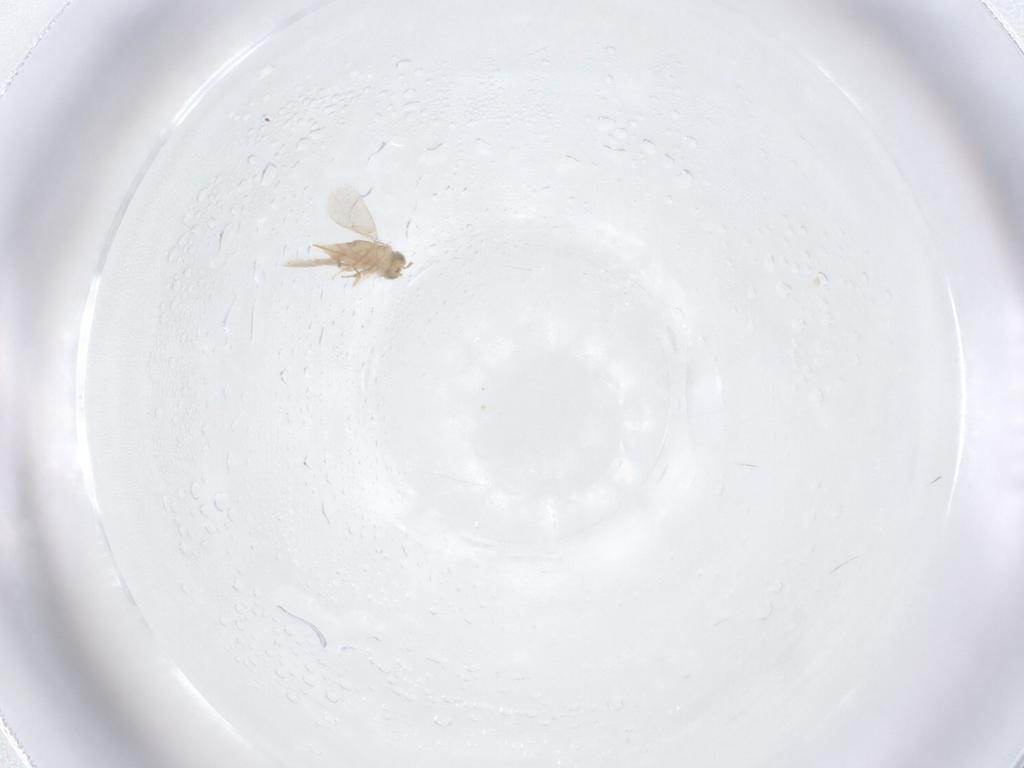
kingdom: Animalia
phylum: Arthropoda
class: Insecta
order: Hymenoptera
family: Aphelinidae
